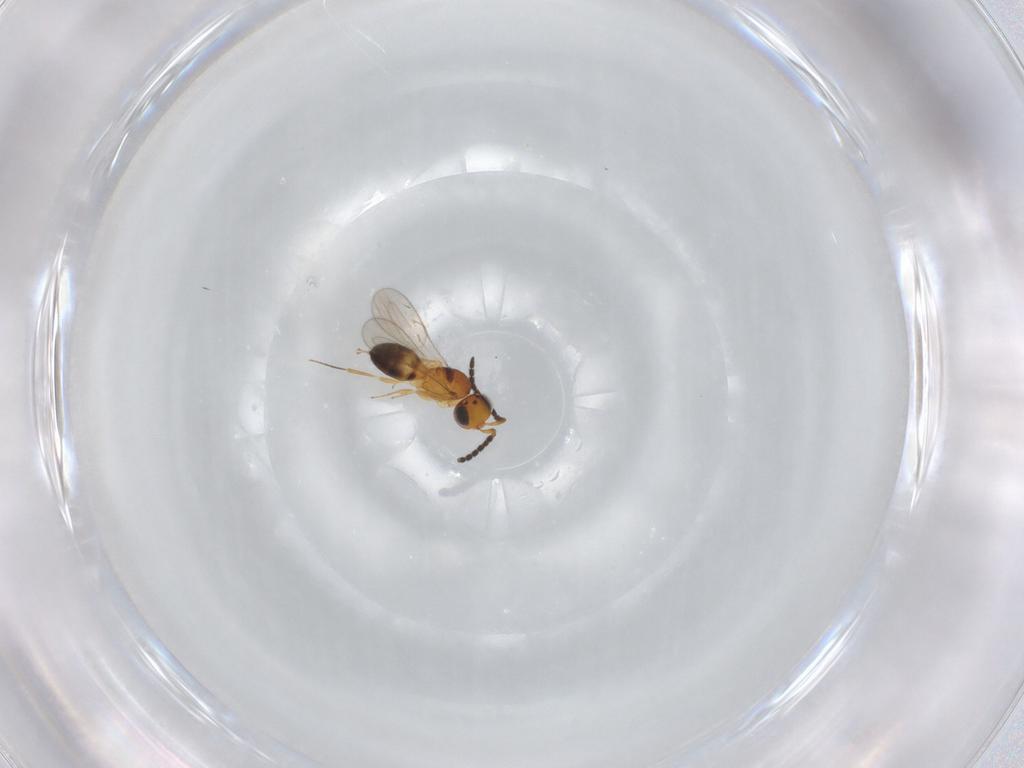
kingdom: Animalia
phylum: Arthropoda
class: Insecta
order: Hymenoptera
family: Scelionidae
